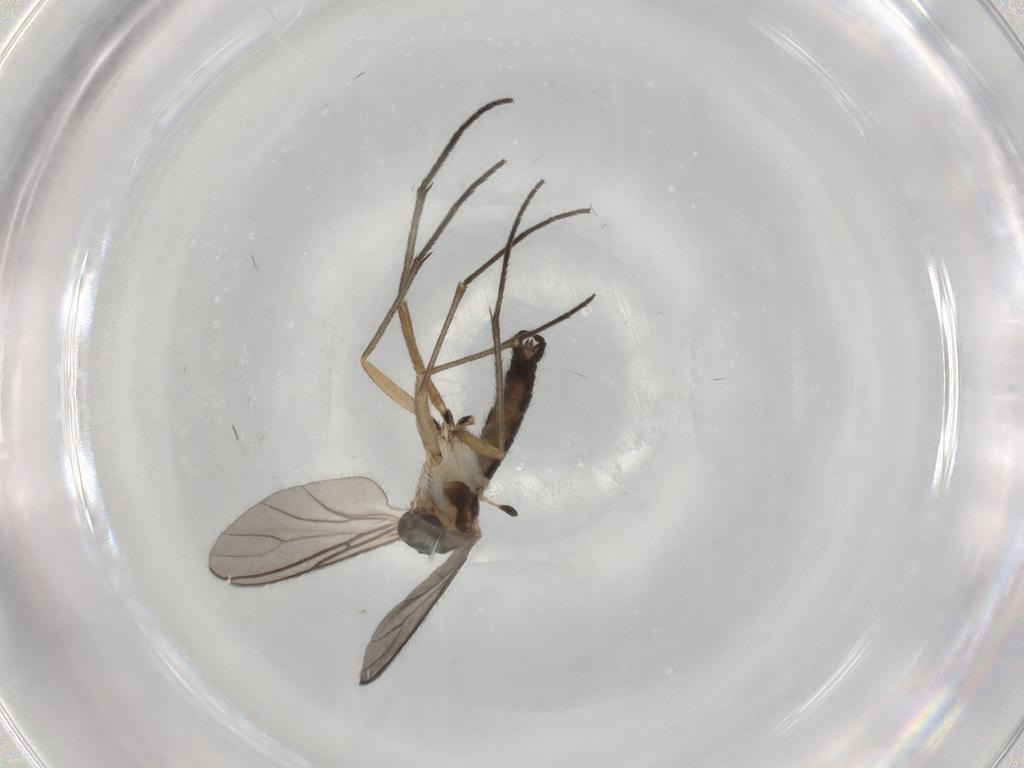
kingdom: Animalia
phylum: Arthropoda
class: Insecta
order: Diptera
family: Sciaridae
